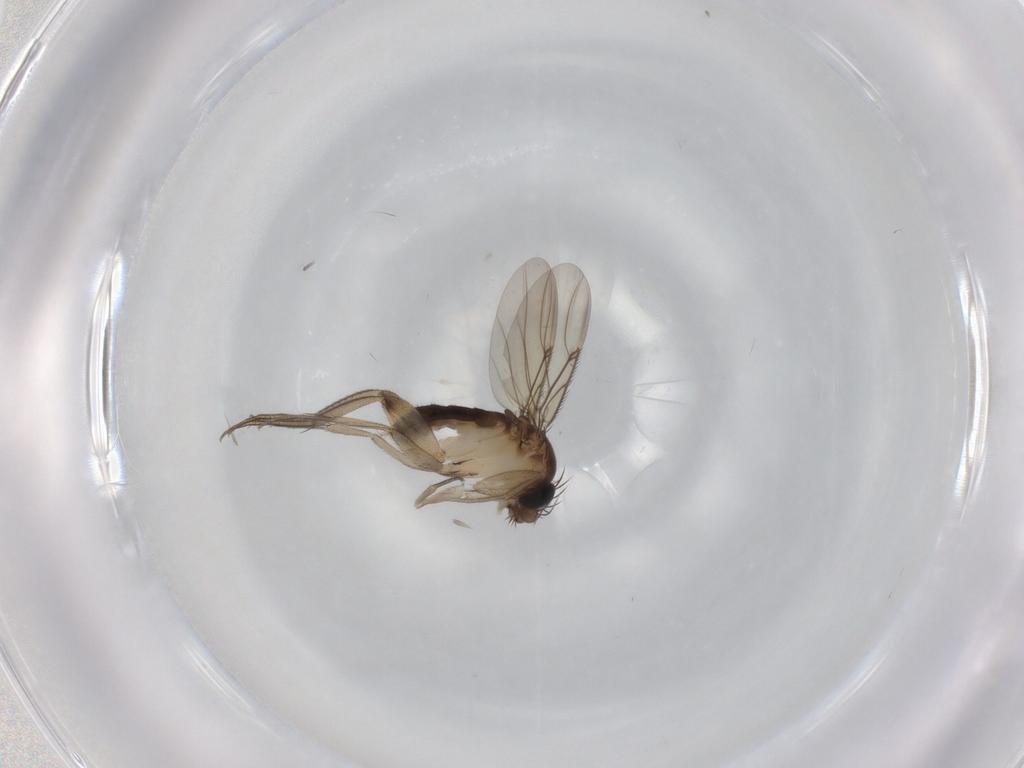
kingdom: Animalia
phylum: Arthropoda
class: Insecta
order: Diptera
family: Phoridae
